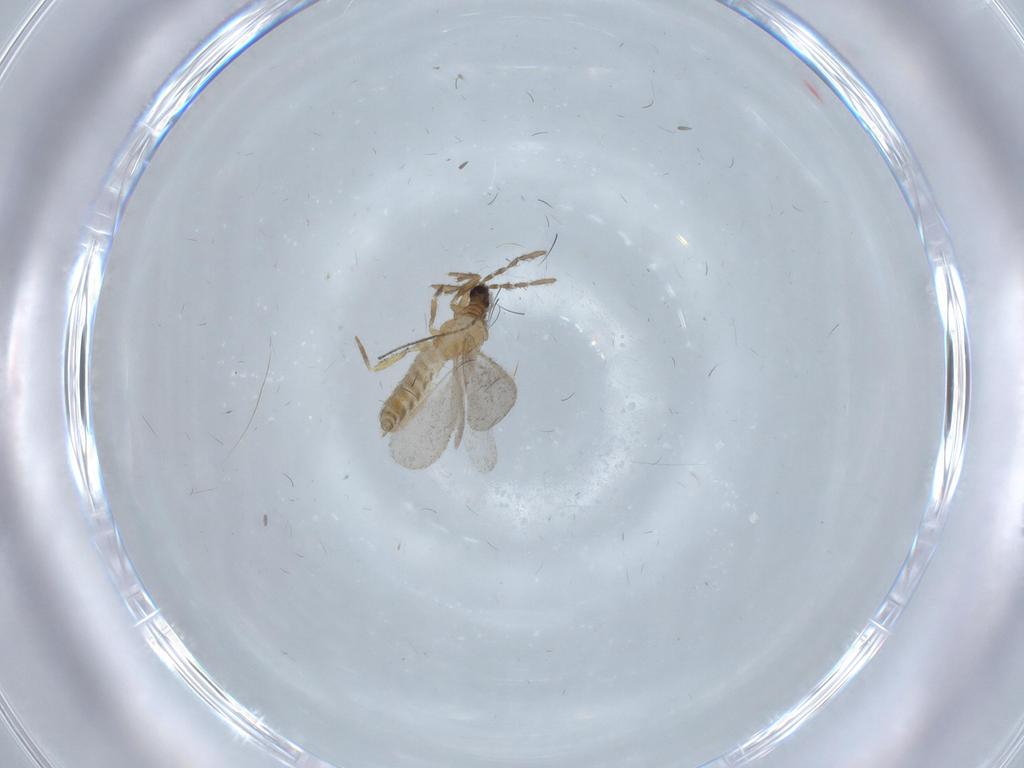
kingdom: Animalia
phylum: Arthropoda
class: Insecta
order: Hemiptera
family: Enicocephalidae
